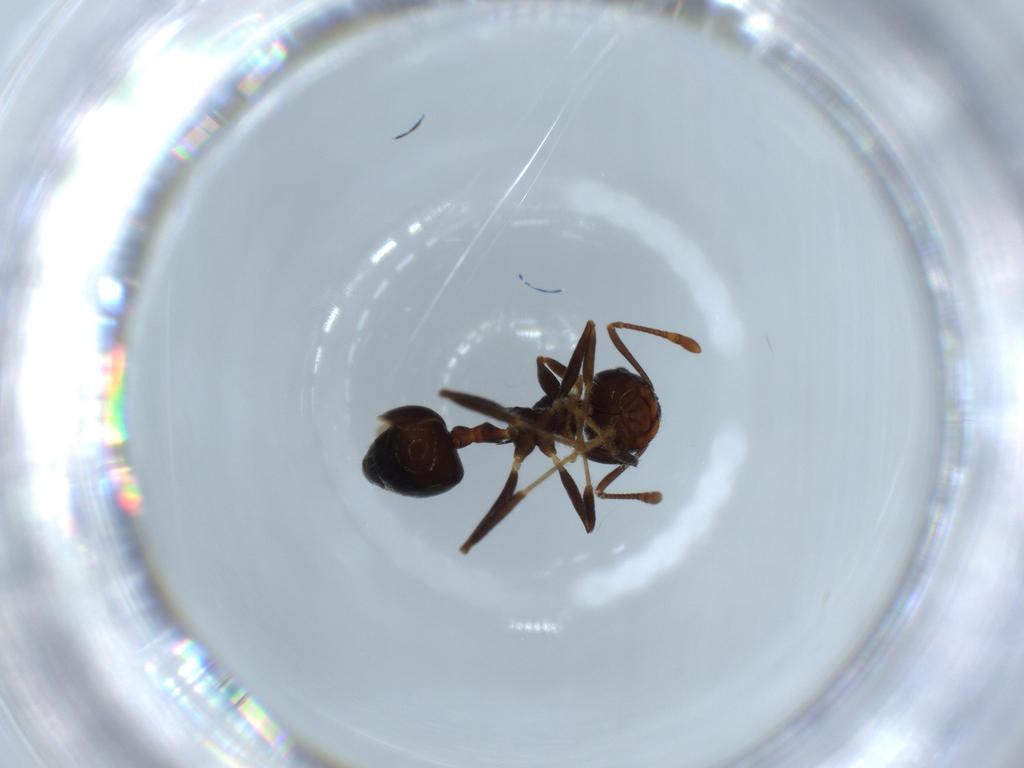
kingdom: Animalia
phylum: Arthropoda
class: Insecta
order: Hymenoptera
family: Formicidae
